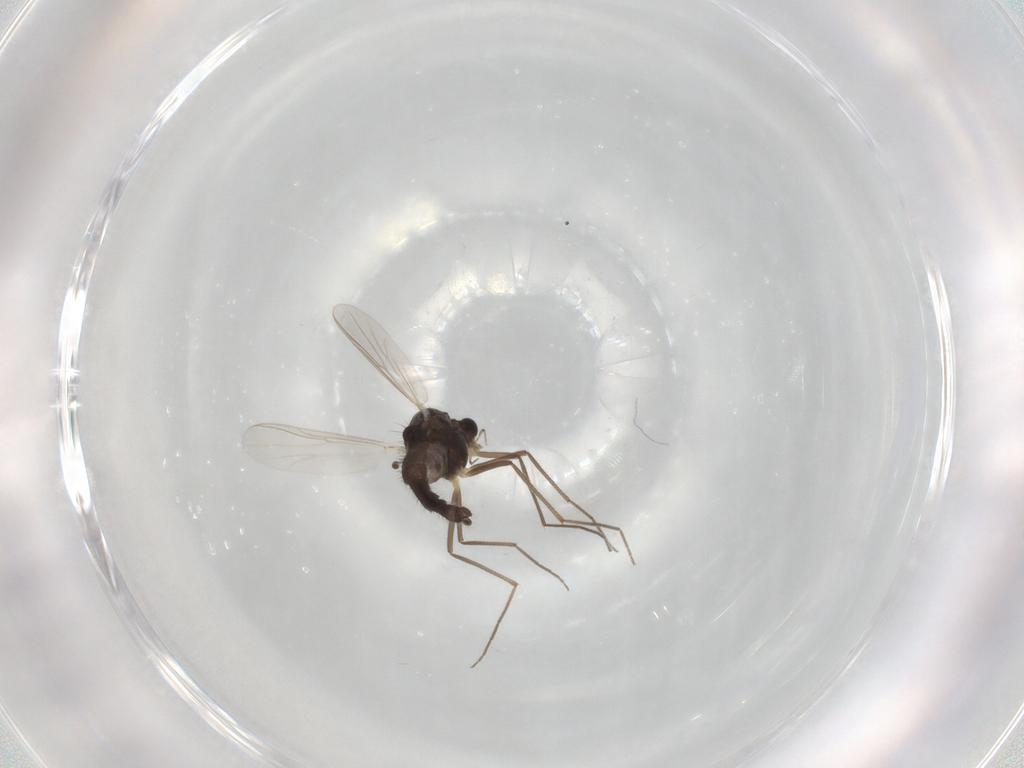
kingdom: Animalia
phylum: Arthropoda
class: Insecta
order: Diptera
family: Chironomidae
